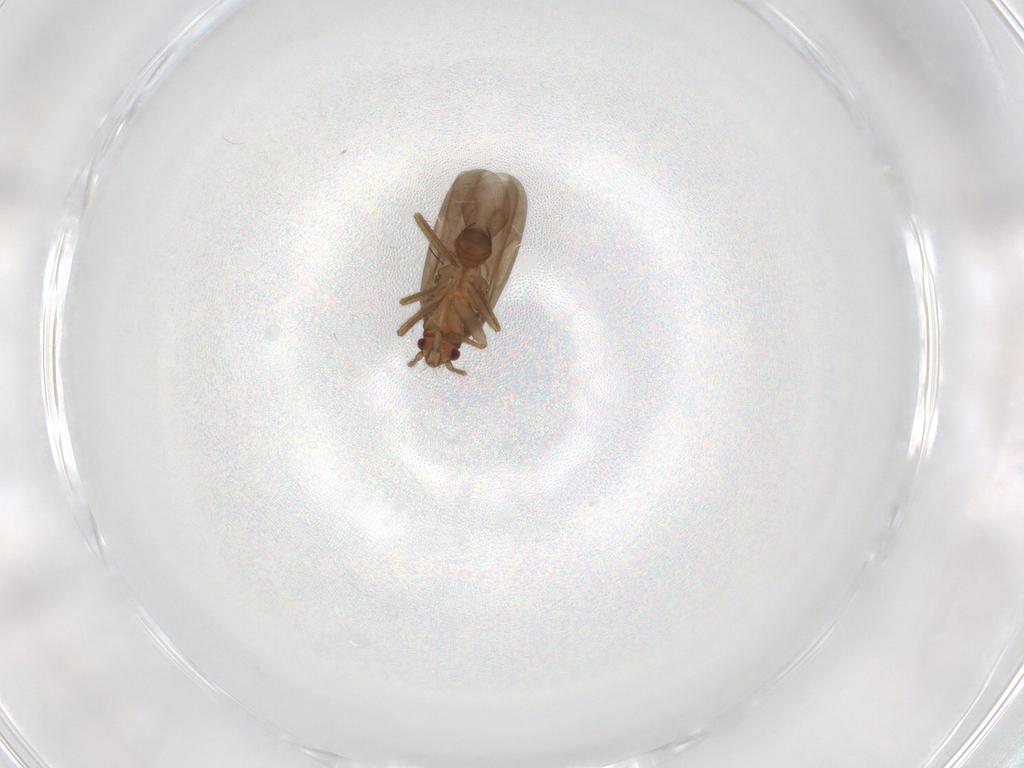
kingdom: Animalia
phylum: Arthropoda
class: Insecta
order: Hemiptera
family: Ceratocombidae
